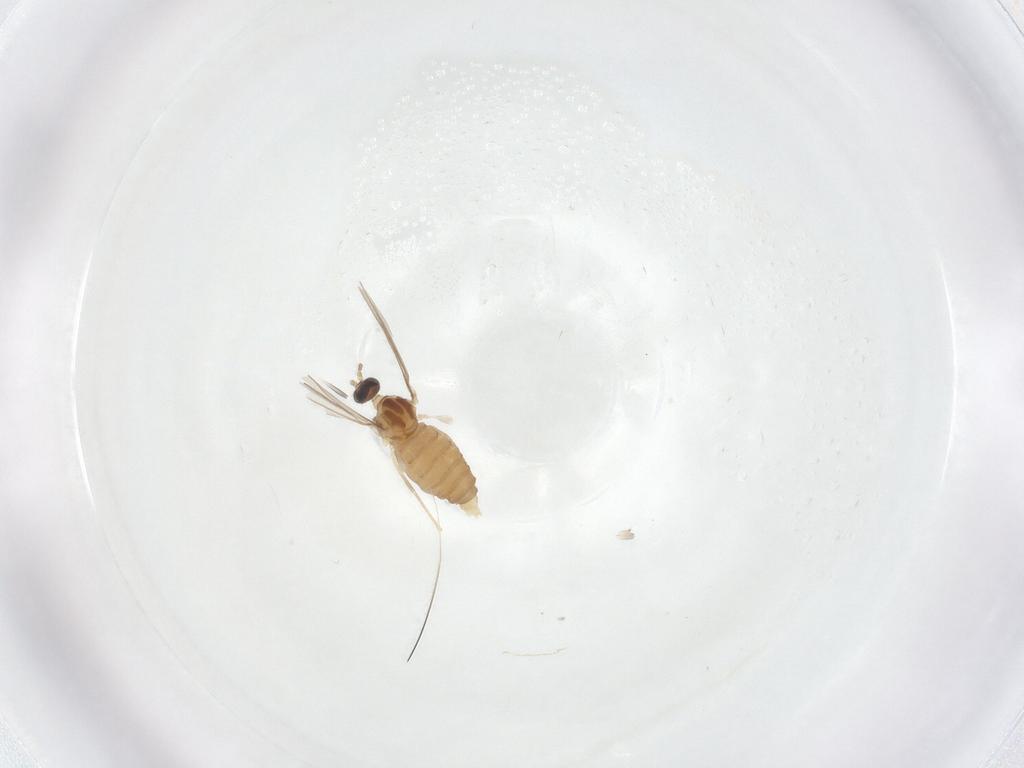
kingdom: Animalia
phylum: Arthropoda
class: Insecta
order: Diptera
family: Cecidomyiidae
